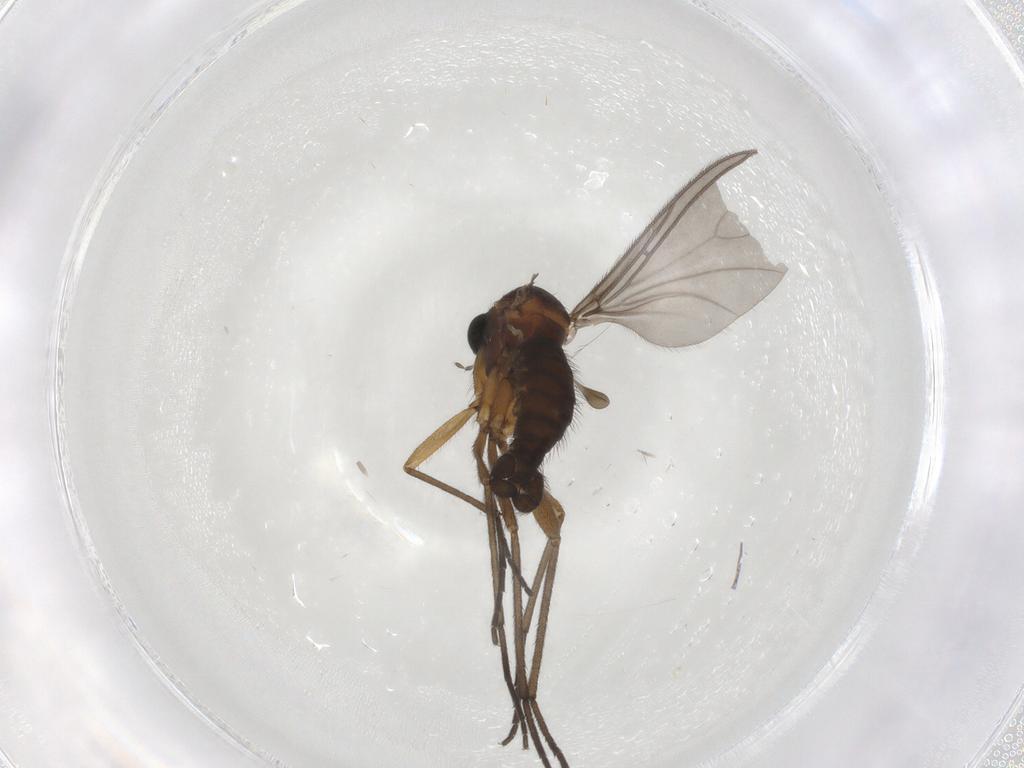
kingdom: Animalia
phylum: Arthropoda
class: Insecta
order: Diptera
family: Sciaridae
